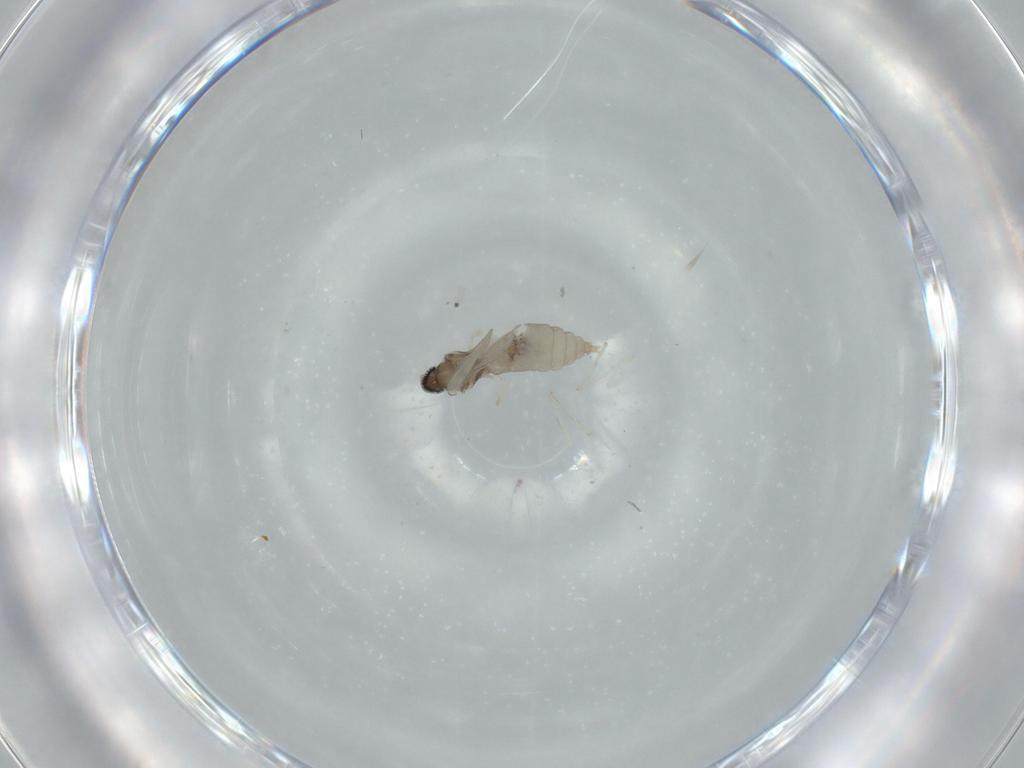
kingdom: Animalia
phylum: Arthropoda
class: Insecta
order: Diptera
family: Cecidomyiidae
